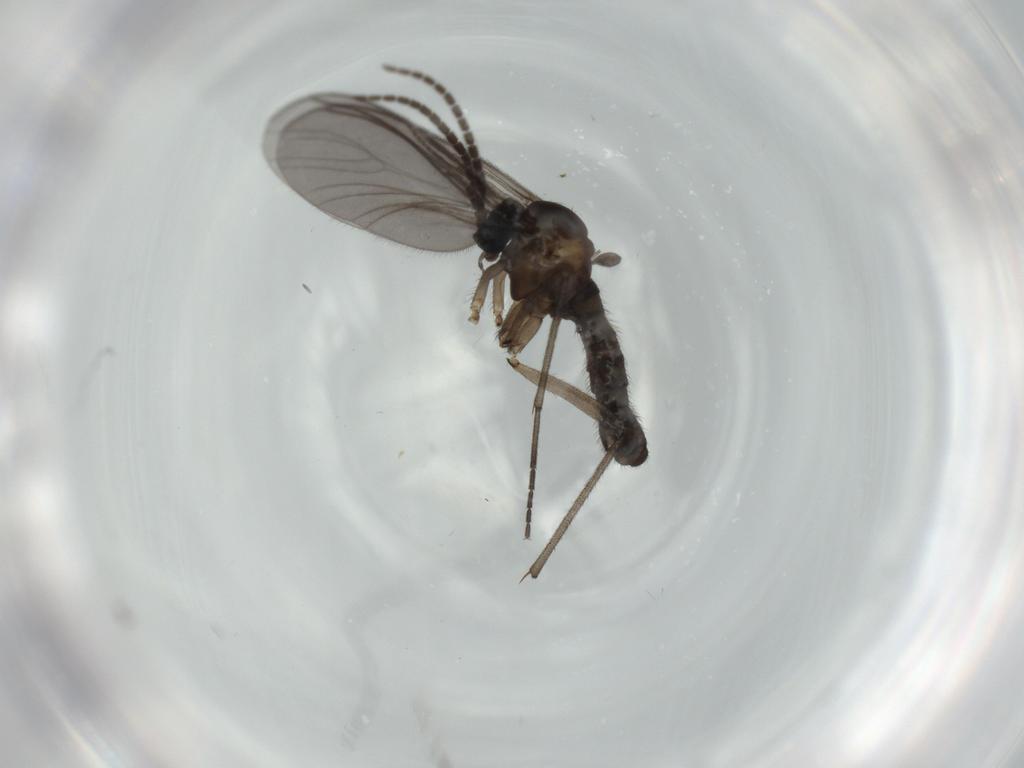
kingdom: Animalia
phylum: Arthropoda
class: Insecta
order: Diptera
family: Sciaridae
